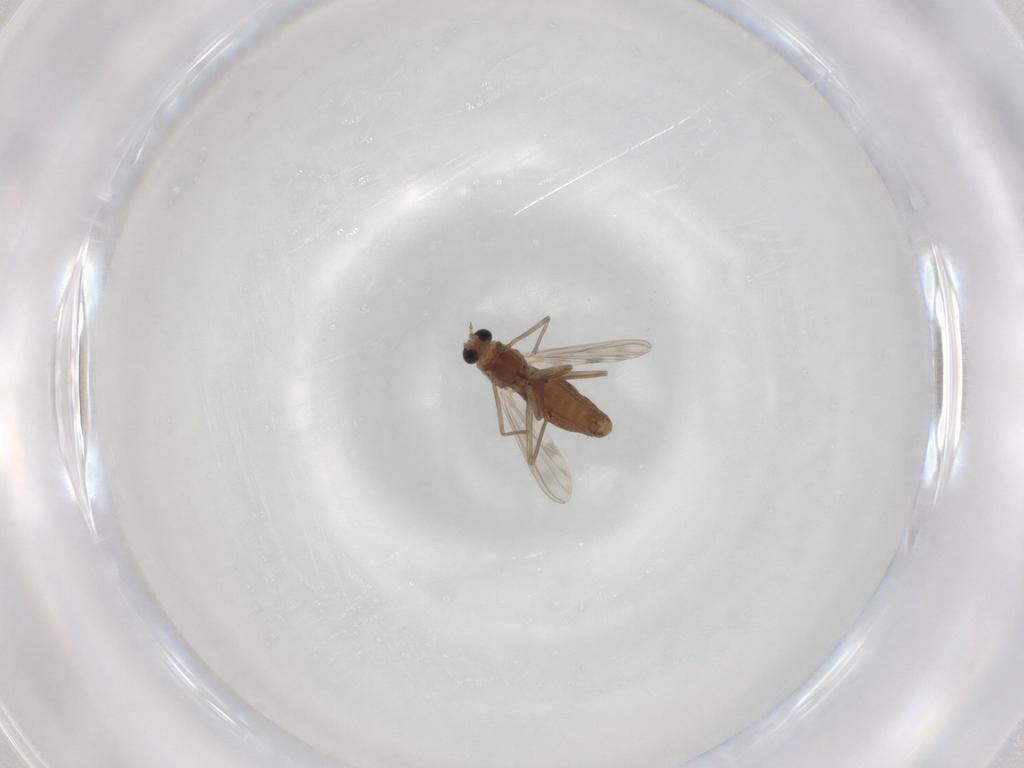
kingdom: Animalia
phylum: Arthropoda
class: Insecta
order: Diptera
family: Chironomidae
